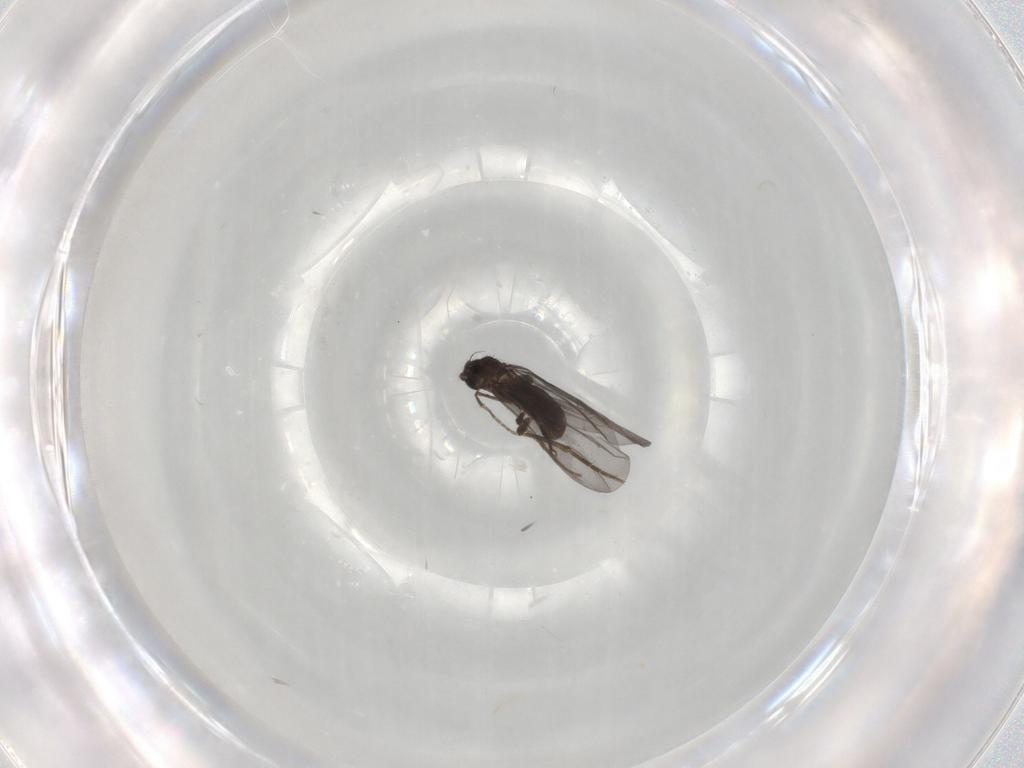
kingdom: Animalia
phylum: Arthropoda
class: Insecta
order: Diptera
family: Phoridae
